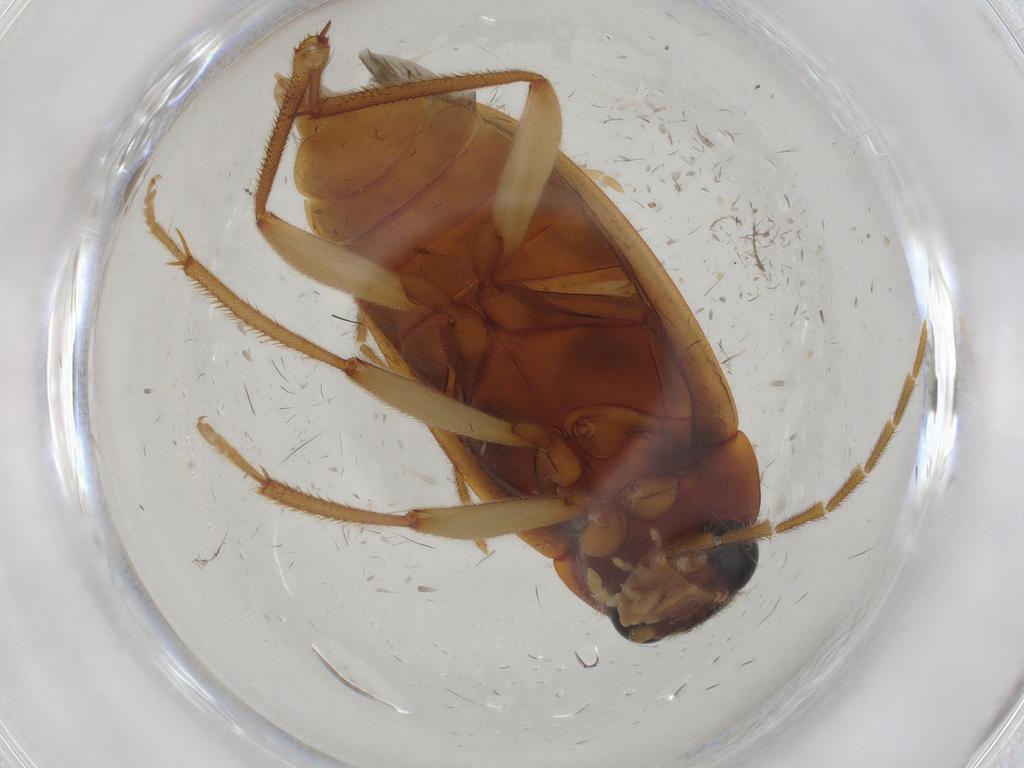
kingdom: Animalia
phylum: Arthropoda
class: Insecta
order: Coleoptera
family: Ptilodactylidae
